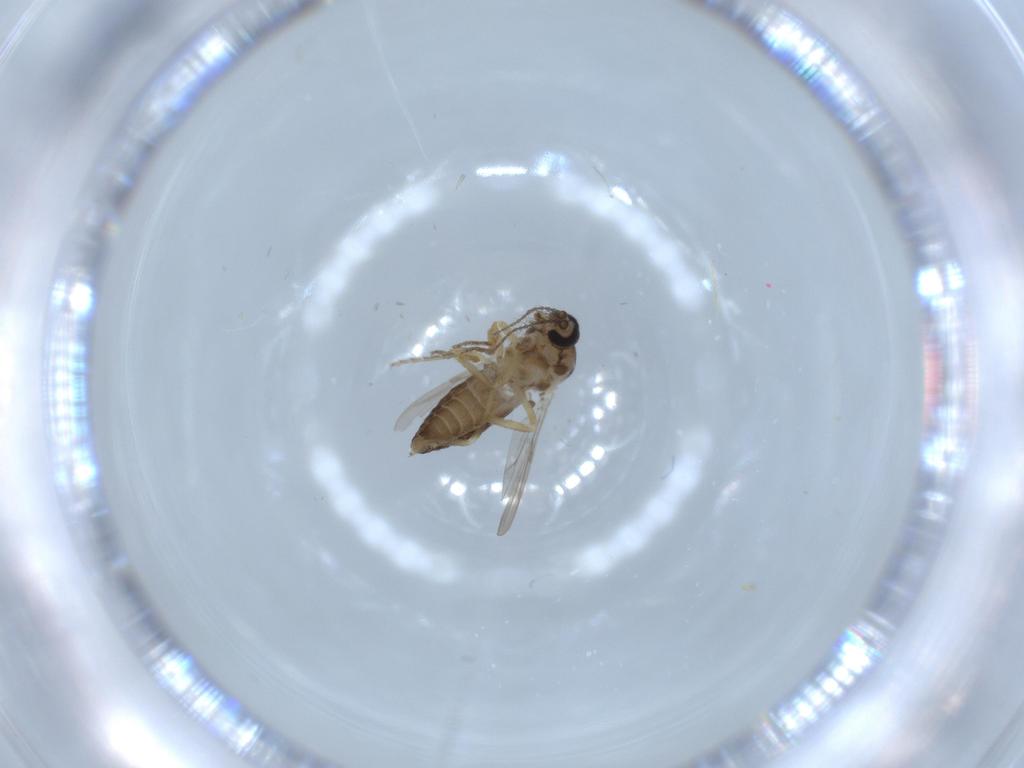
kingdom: Animalia
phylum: Arthropoda
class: Insecta
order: Diptera
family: Ceratopogonidae
